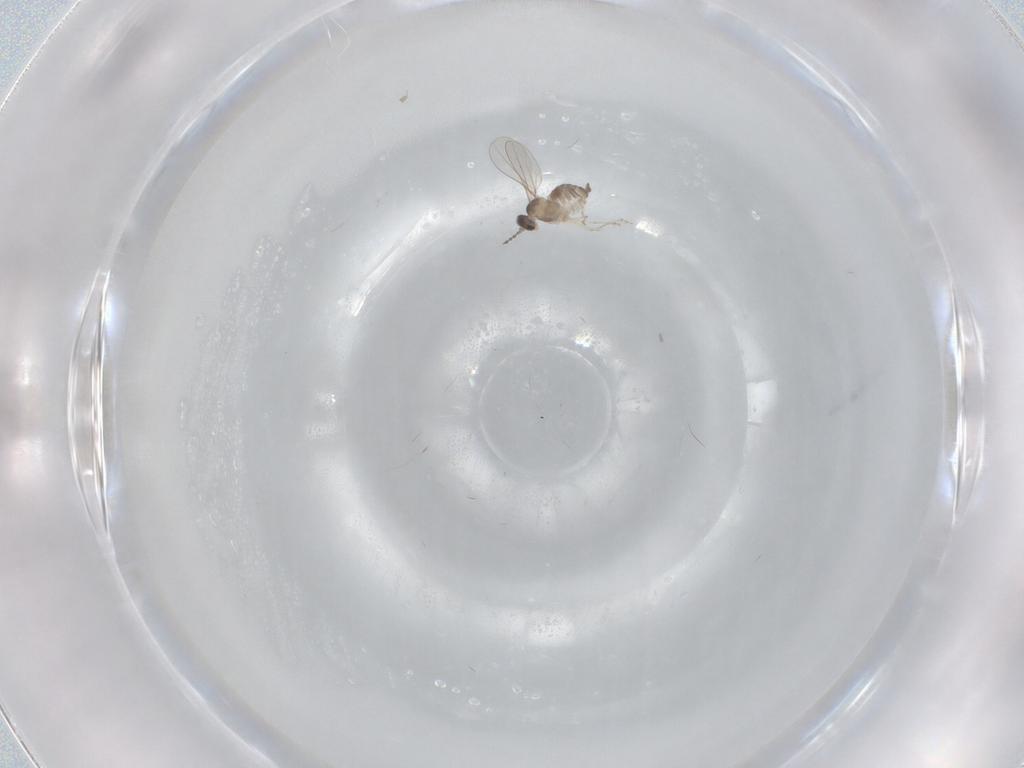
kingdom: Animalia
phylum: Arthropoda
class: Insecta
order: Diptera
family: Cecidomyiidae
